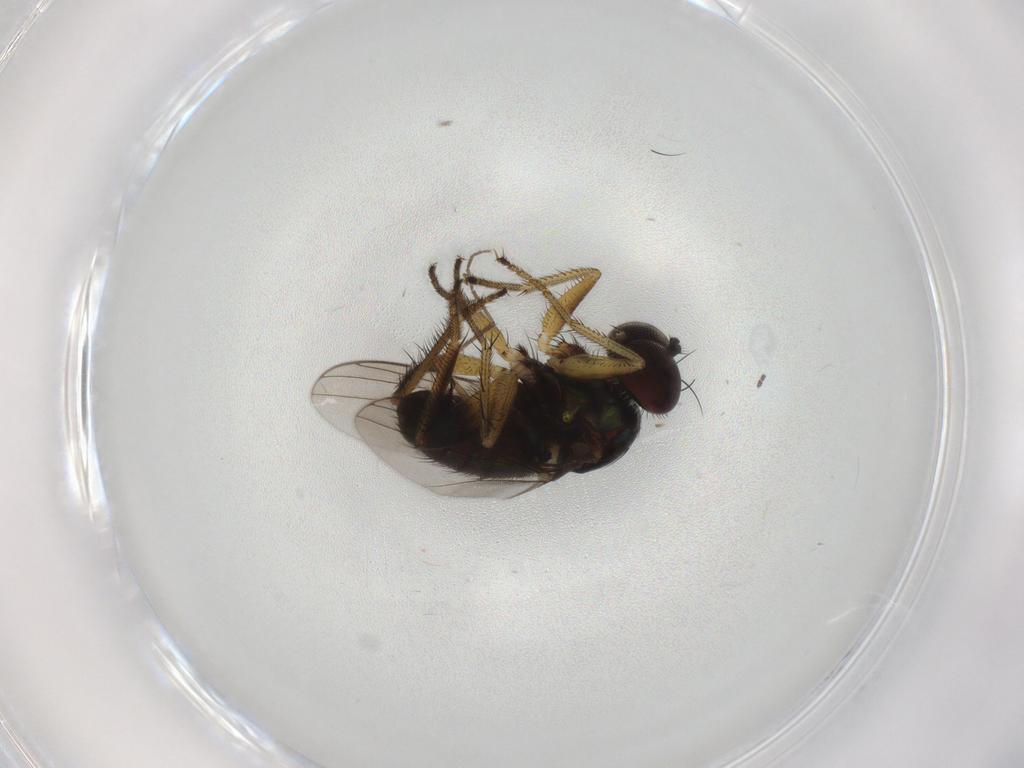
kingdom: Animalia
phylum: Arthropoda
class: Insecta
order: Diptera
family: Dolichopodidae
